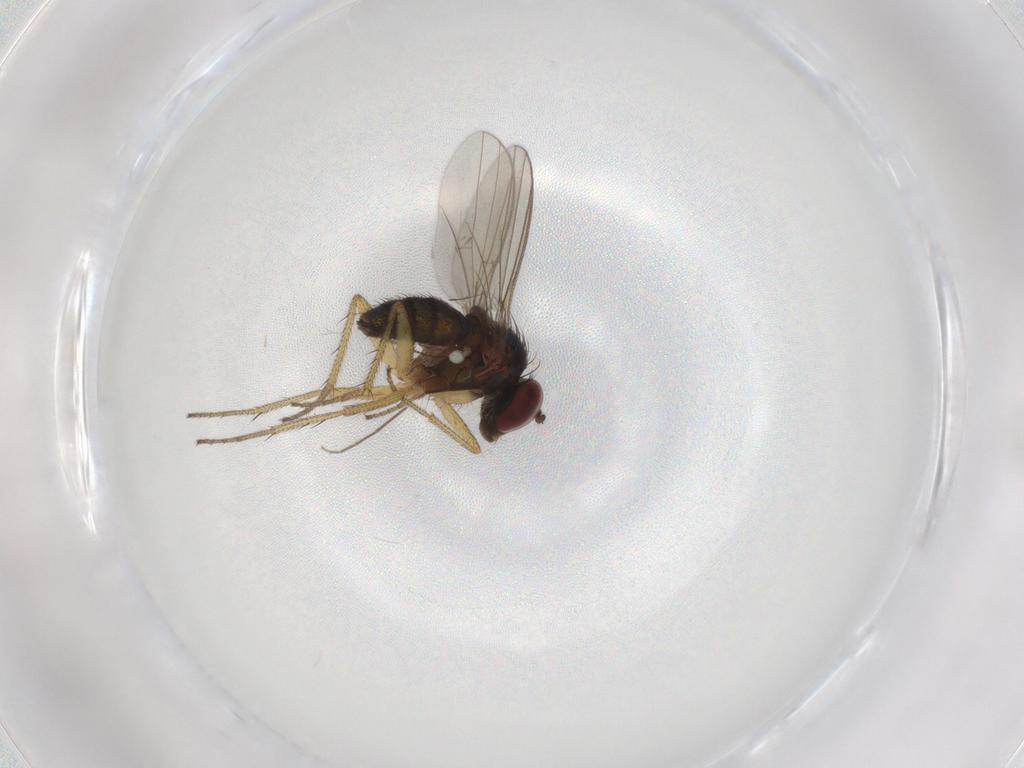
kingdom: Animalia
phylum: Arthropoda
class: Insecta
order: Diptera
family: Chironomidae
